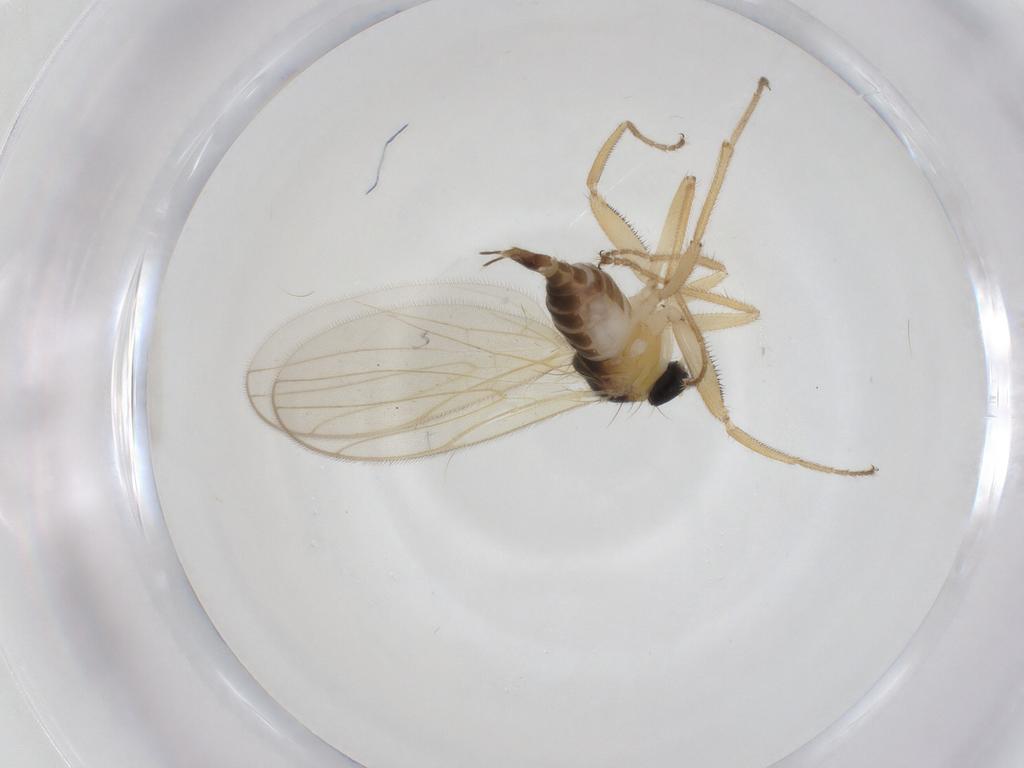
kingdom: Animalia
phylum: Arthropoda
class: Insecta
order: Diptera
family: Hybotidae
